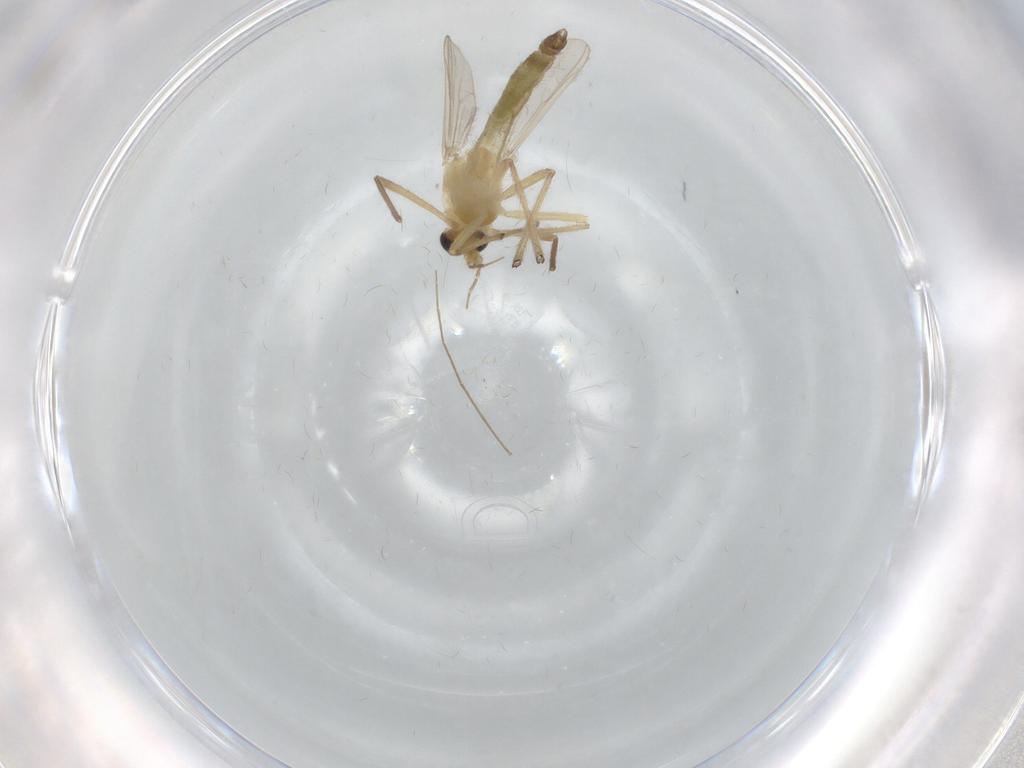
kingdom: Animalia
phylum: Arthropoda
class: Insecta
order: Diptera
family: Chironomidae
